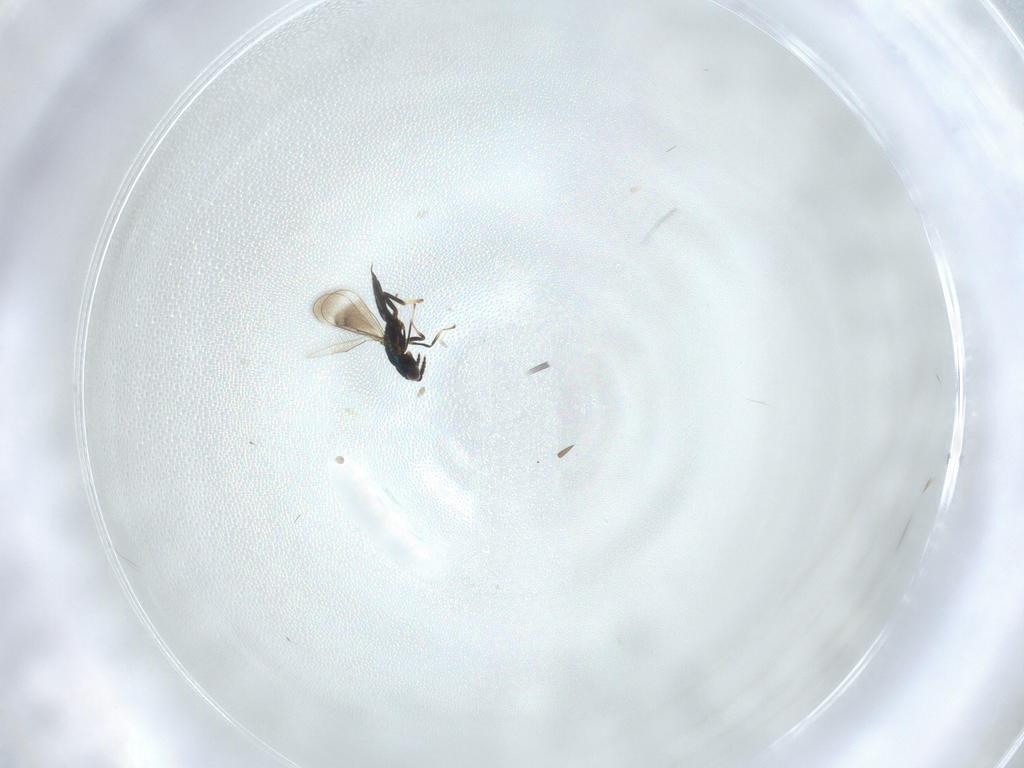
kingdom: Animalia
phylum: Arthropoda
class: Insecta
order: Hymenoptera
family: Eulophidae
